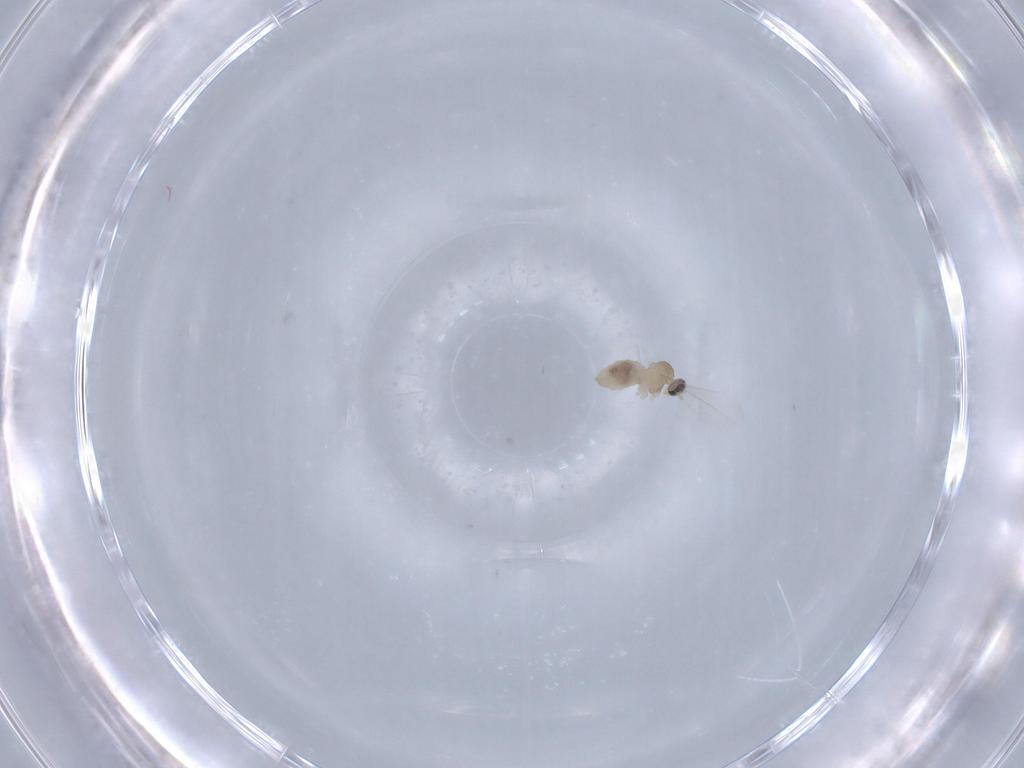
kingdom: Animalia
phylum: Arthropoda
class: Insecta
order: Diptera
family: Cecidomyiidae
